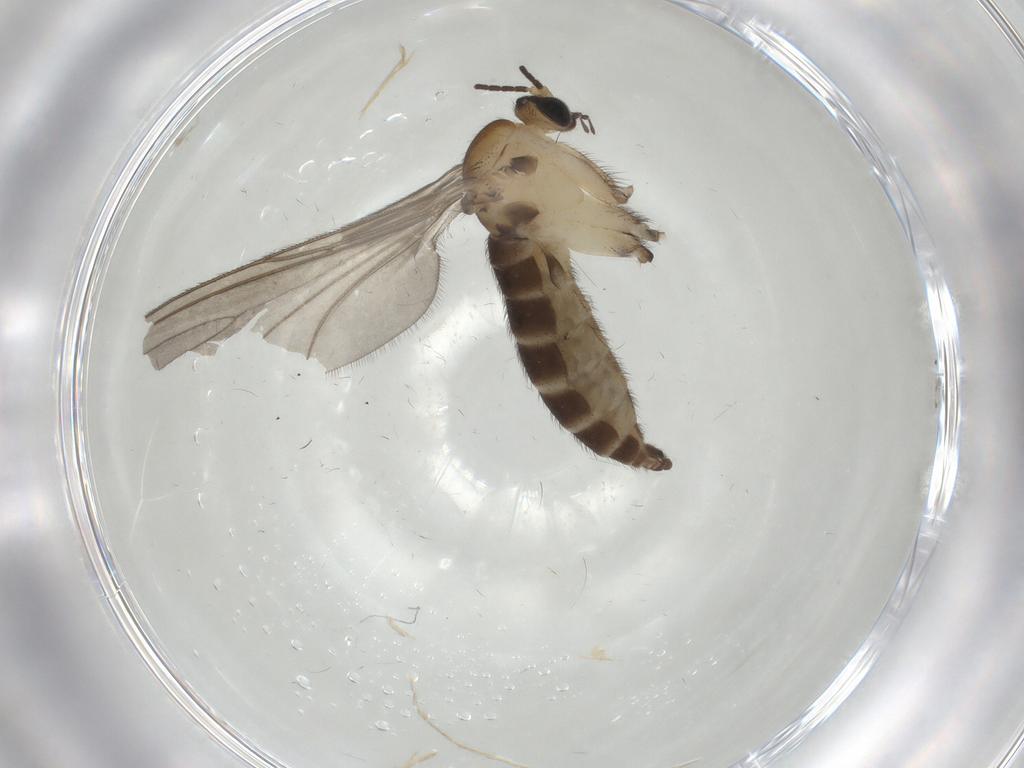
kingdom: Animalia
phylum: Arthropoda
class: Insecta
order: Diptera
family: Sciaridae
